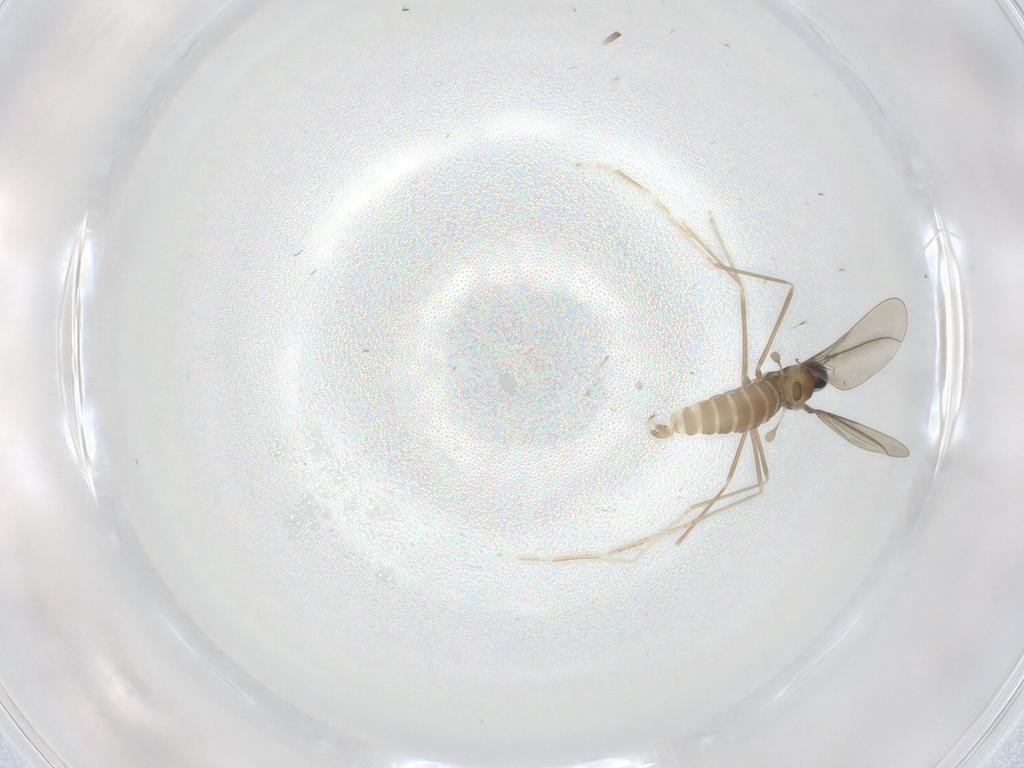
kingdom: Animalia
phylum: Arthropoda
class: Insecta
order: Diptera
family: Cecidomyiidae
